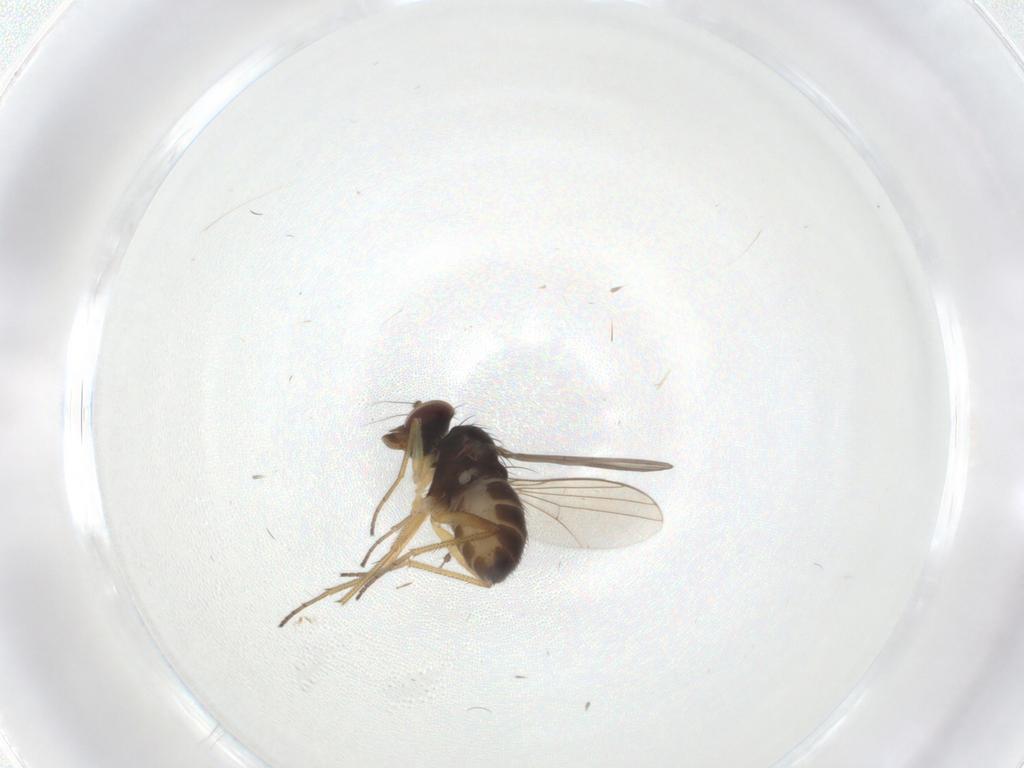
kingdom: Animalia
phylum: Arthropoda
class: Insecta
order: Diptera
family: Dolichopodidae
